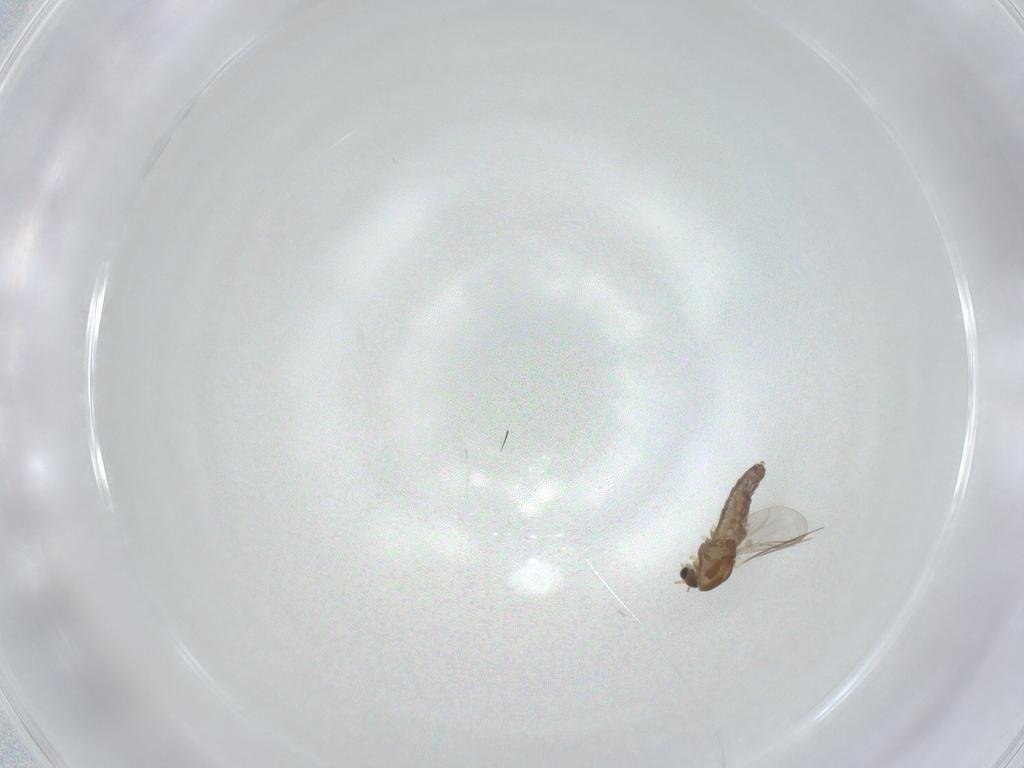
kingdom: Animalia
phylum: Arthropoda
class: Insecta
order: Diptera
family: Chironomidae
